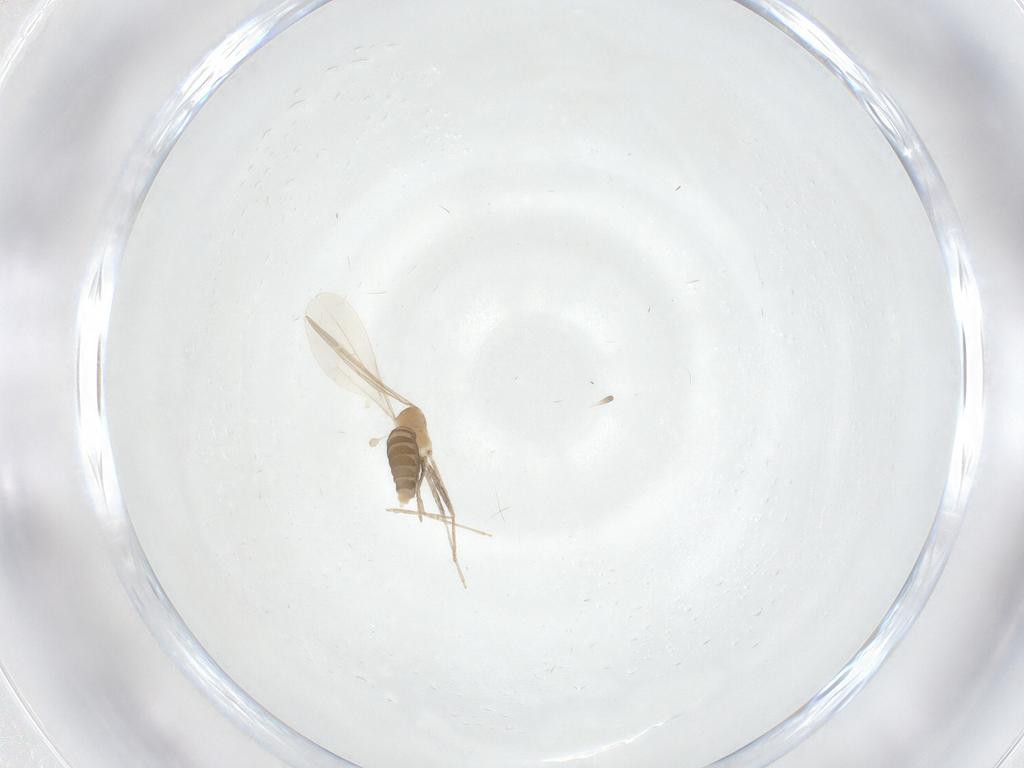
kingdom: Animalia
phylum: Arthropoda
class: Insecta
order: Diptera
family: Cecidomyiidae
